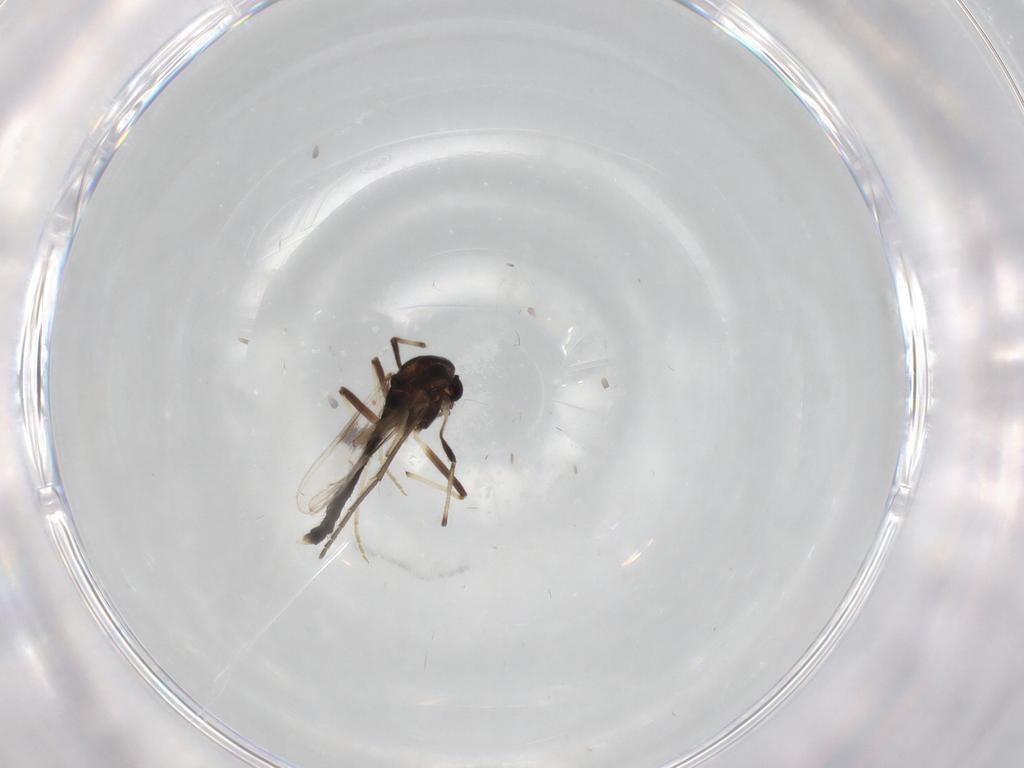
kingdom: Animalia
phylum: Arthropoda
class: Insecta
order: Diptera
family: Chironomidae
